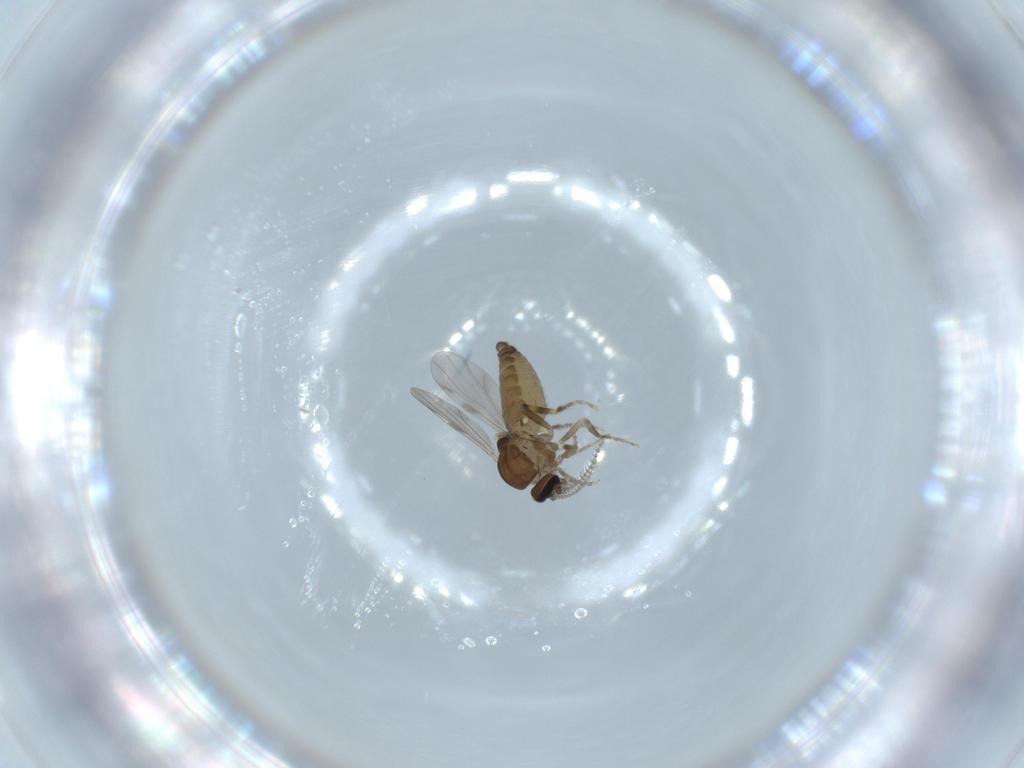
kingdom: Animalia
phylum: Arthropoda
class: Insecta
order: Diptera
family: Ceratopogonidae
